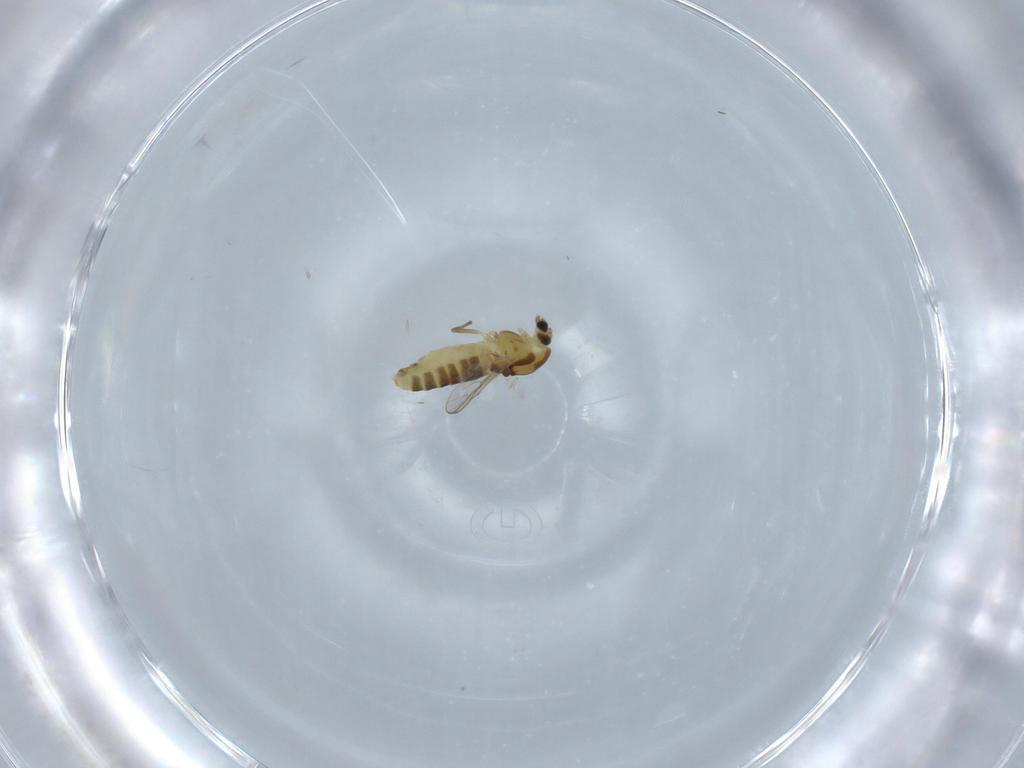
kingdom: Animalia
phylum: Arthropoda
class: Insecta
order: Diptera
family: Chironomidae
